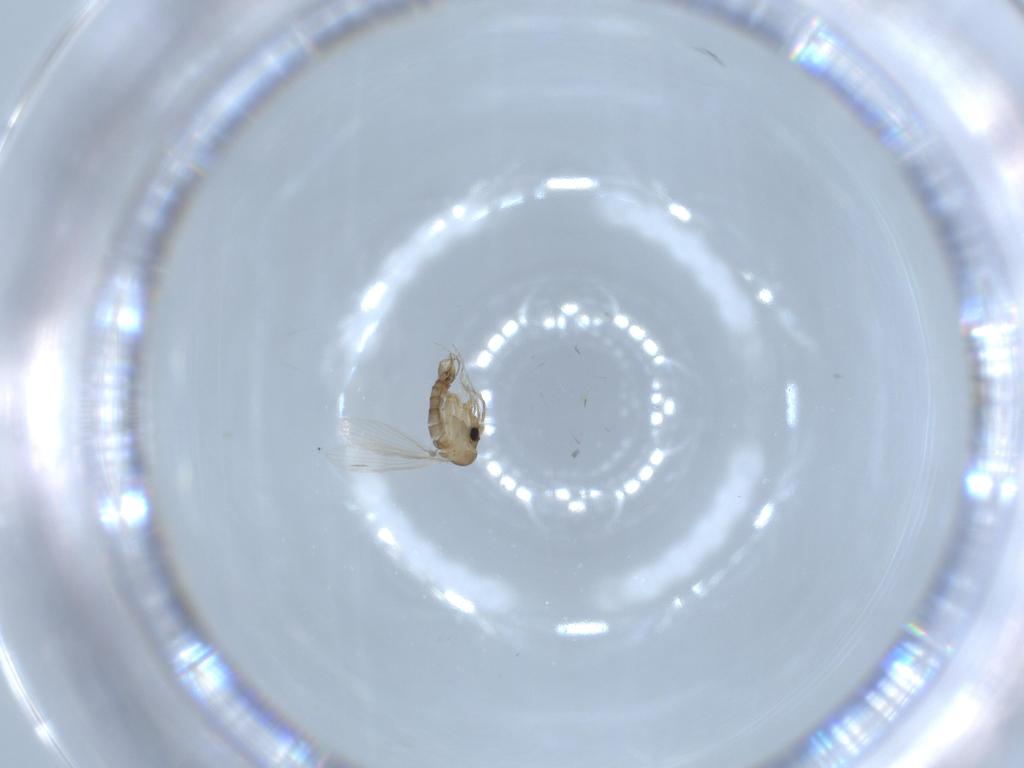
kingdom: Animalia
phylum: Arthropoda
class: Insecta
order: Diptera
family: Psychodidae
